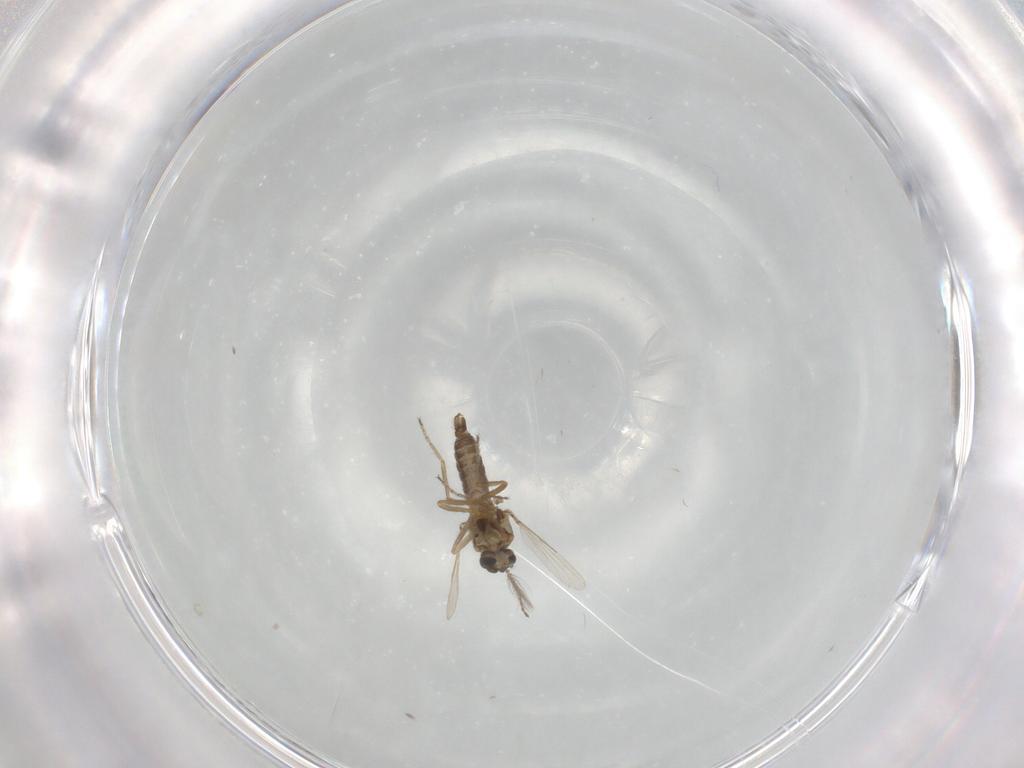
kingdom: Animalia
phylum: Arthropoda
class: Insecta
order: Diptera
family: Ceratopogonidae
